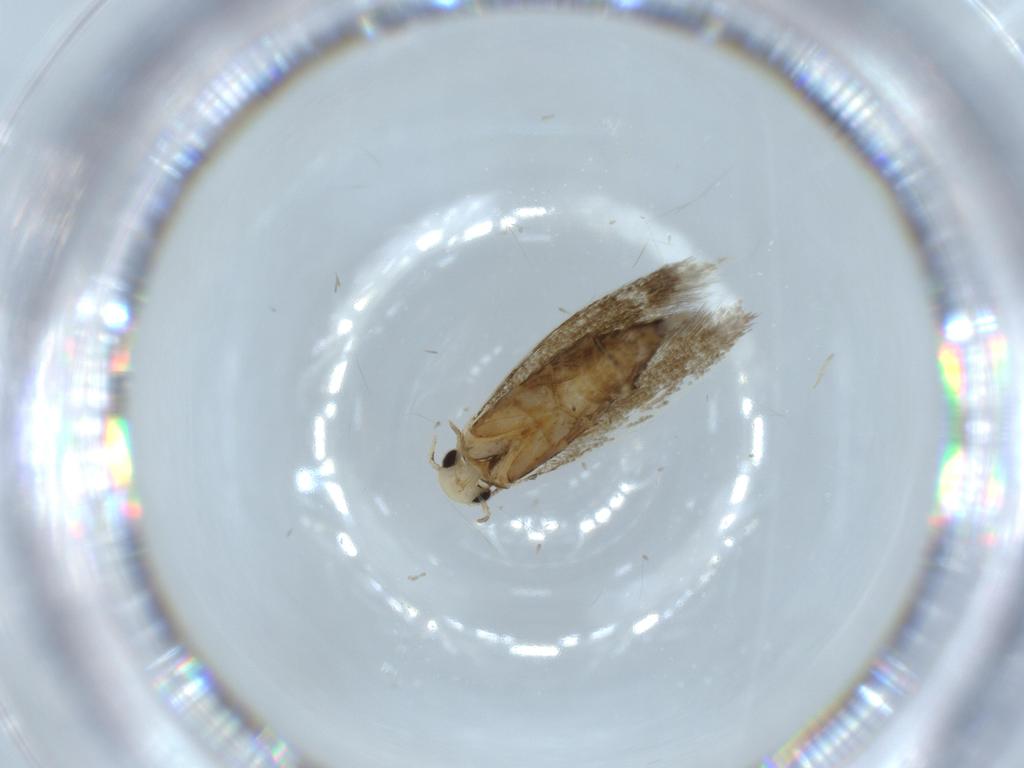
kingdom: Animalia
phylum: Arthropoda
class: Insecta
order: Lepidoptera
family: Tineidae
